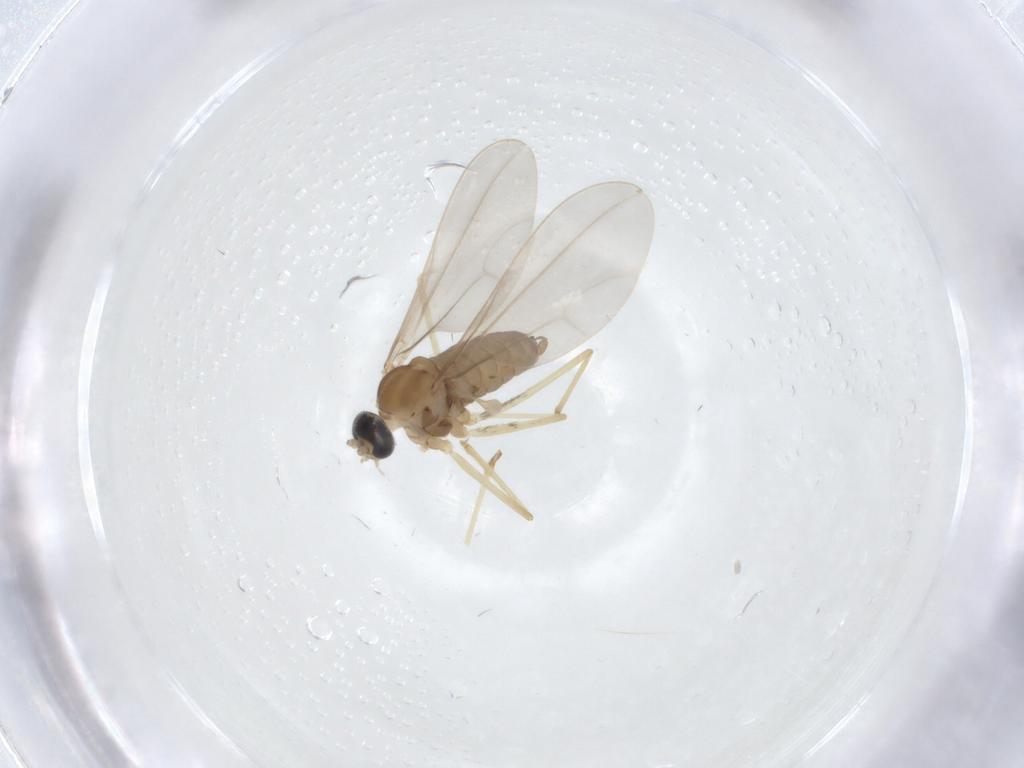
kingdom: Animalia
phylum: Arthropoda
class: Insecta
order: Diptera
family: Cecidomyiidae
